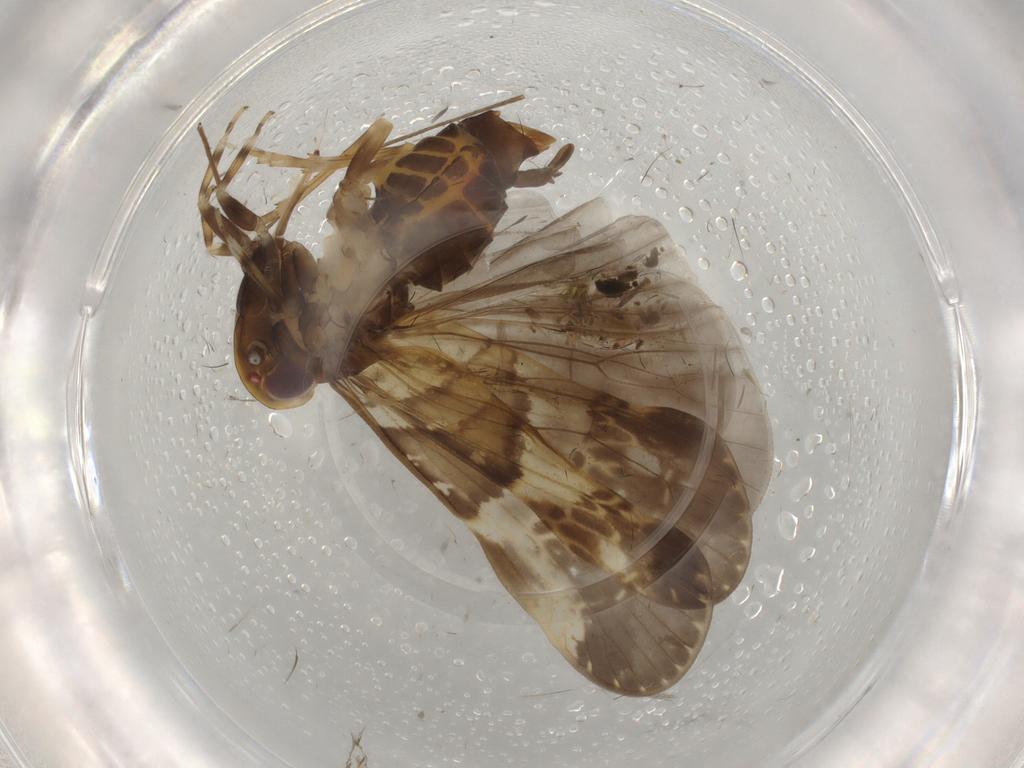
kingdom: Animalia
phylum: Arthropoda
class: Insecta
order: Hemiptera
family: Cixiidae
